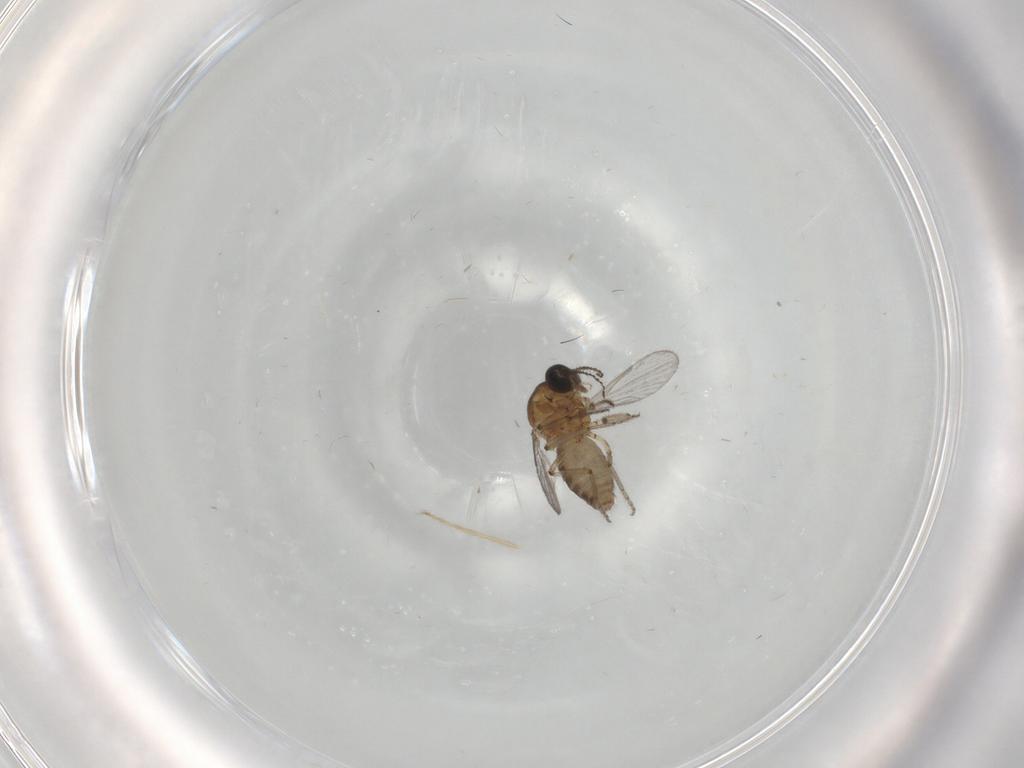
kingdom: Animalia
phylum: Arthropoda
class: Insecta
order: Diptera
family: Ceratopogonidae
